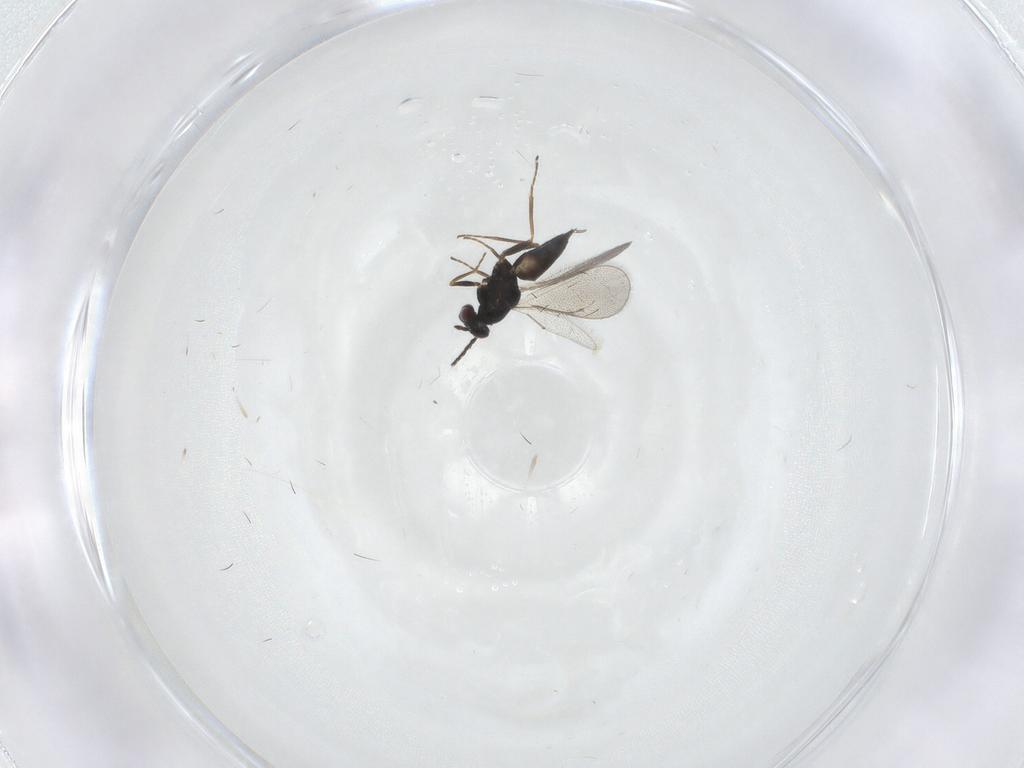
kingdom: Animalia
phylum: Arthropoda
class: Insecta
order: Hymenoptera
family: Eulophidae
